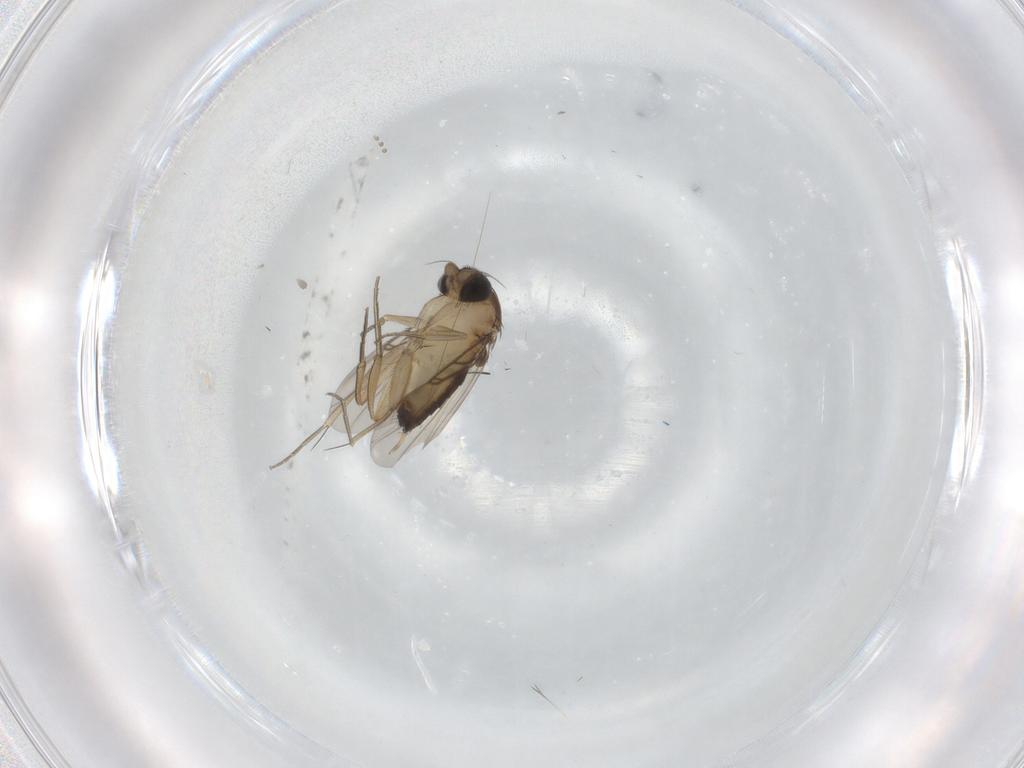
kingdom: Animalia
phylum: Arthropoda
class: Insecta
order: Diptera
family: Phoridae
